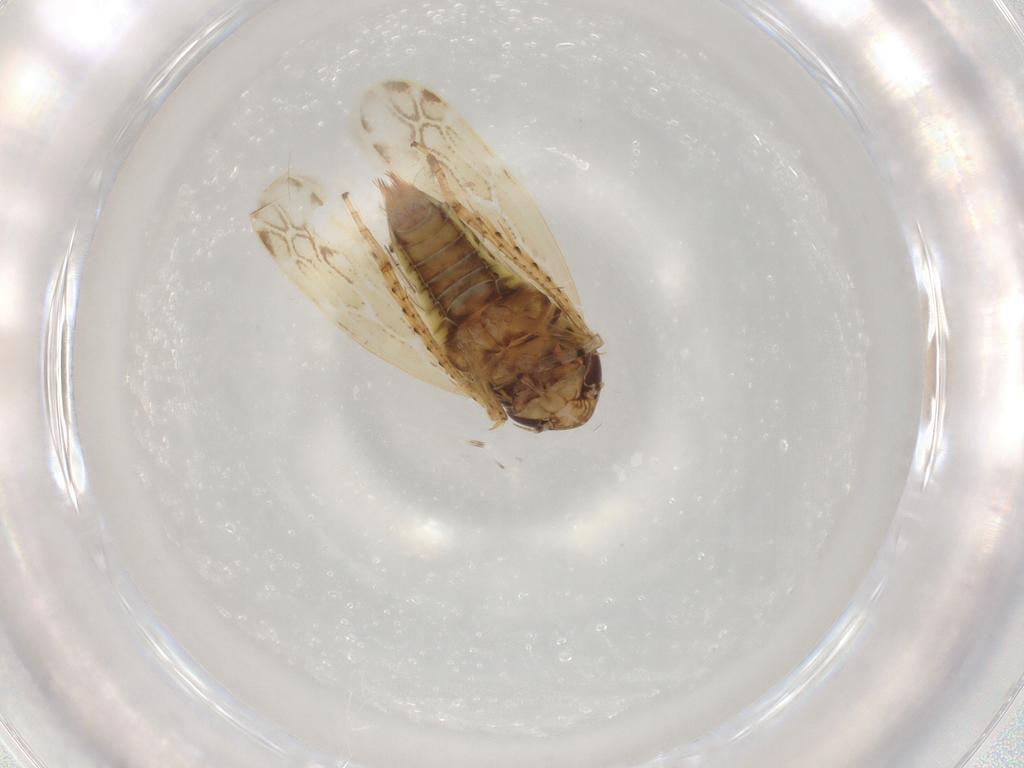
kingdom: Animalia
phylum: Arthropoda
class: Insecta
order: Hemiptera
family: Cicadellidae
